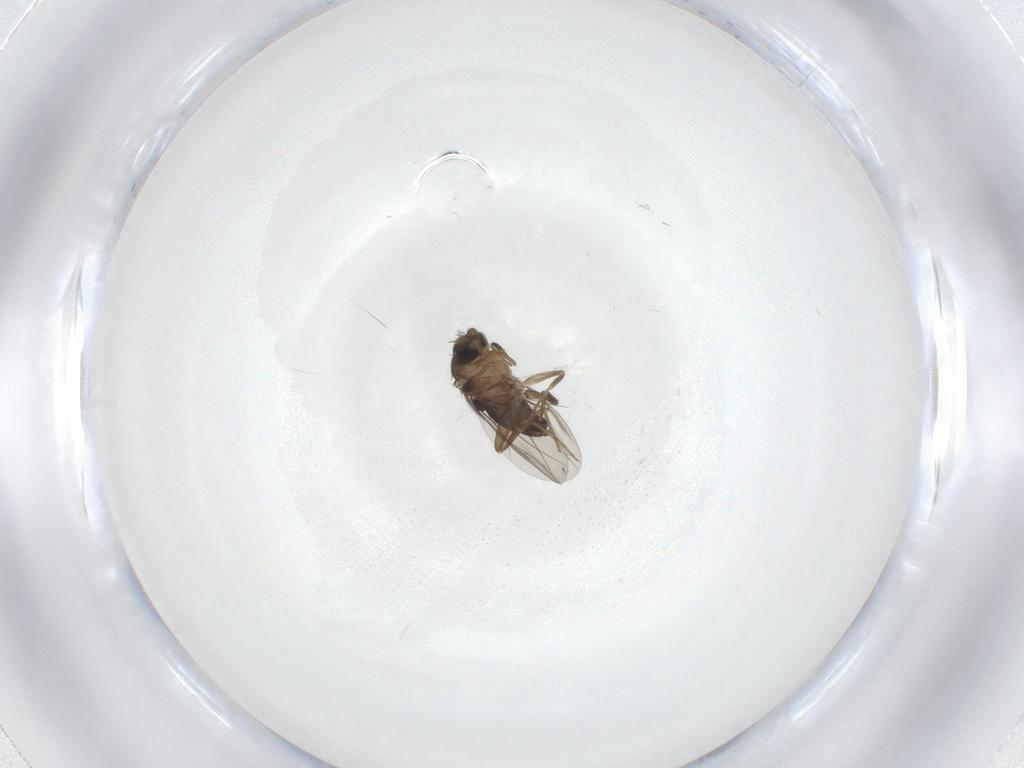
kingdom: Animalia
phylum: Arthropoda
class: Insecta
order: Diptera
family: Phoridae
